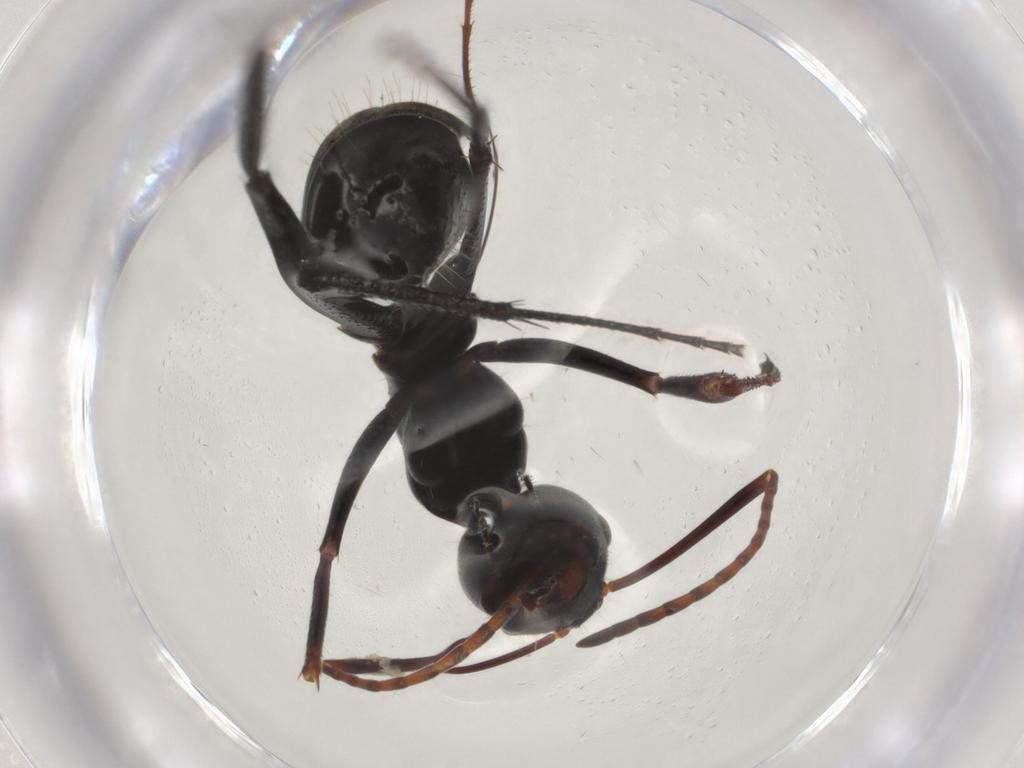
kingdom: Animalia
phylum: Arthropoda
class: Insecta
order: Hymenoptera
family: Formicidae
